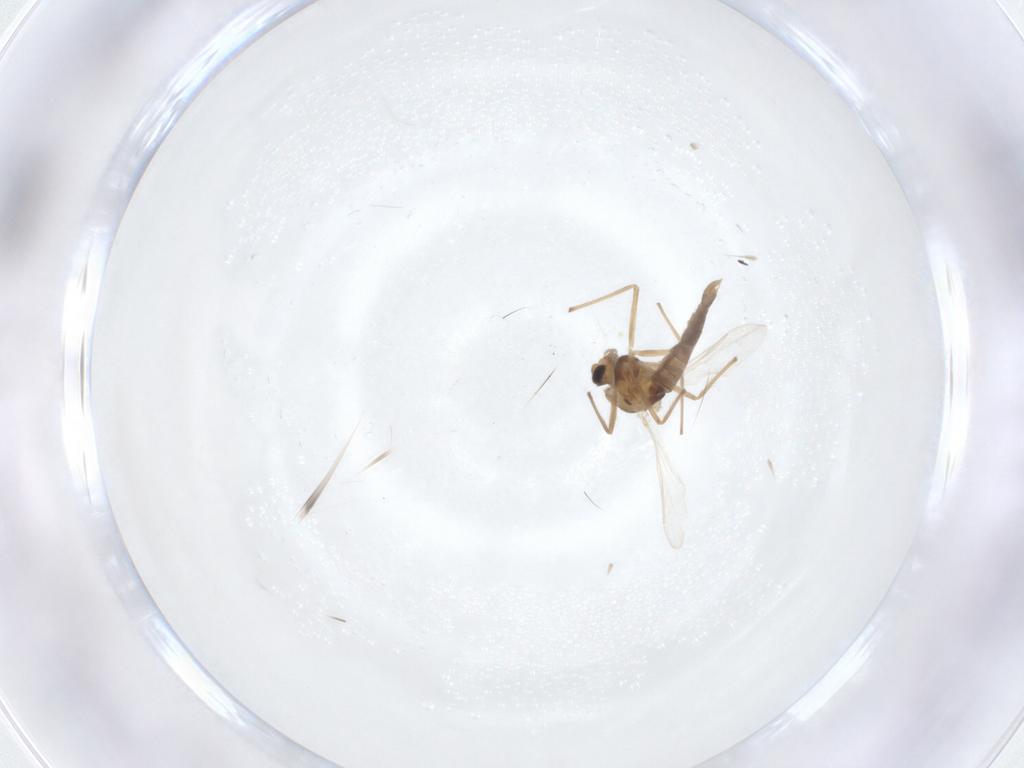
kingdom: Animalia
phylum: Arthropoda
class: Insecta
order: Diptera
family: Chironomidae
